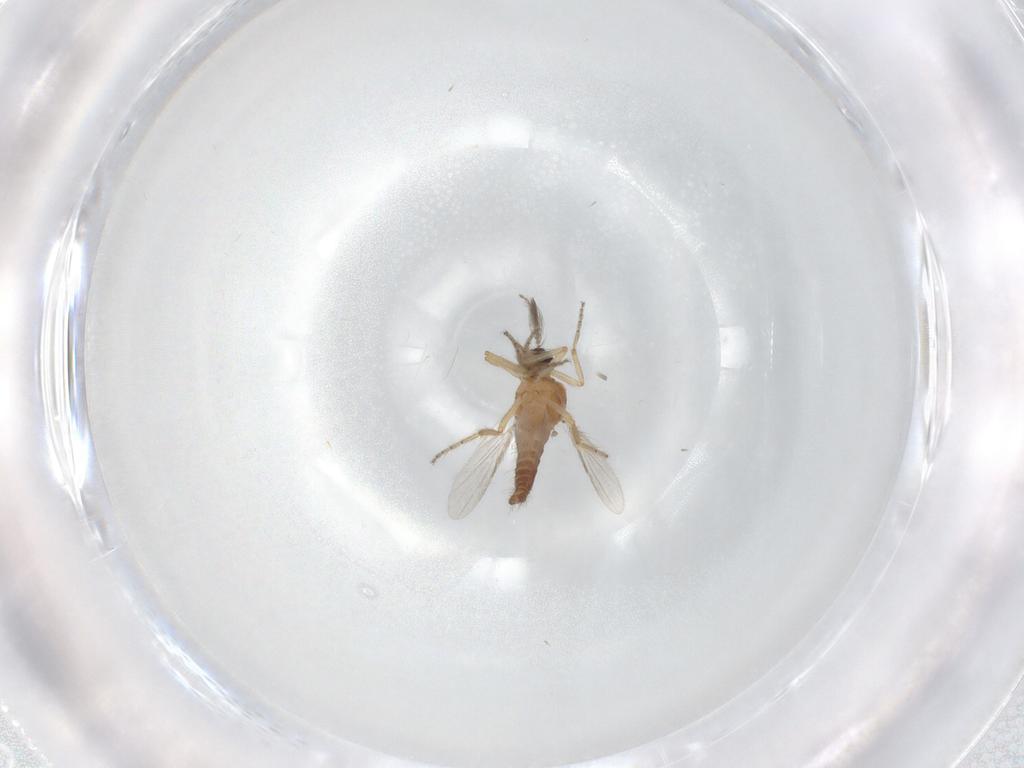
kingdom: Animalia
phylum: Arthropoda
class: Insecta
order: Diptera
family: Ceratopogonidae
